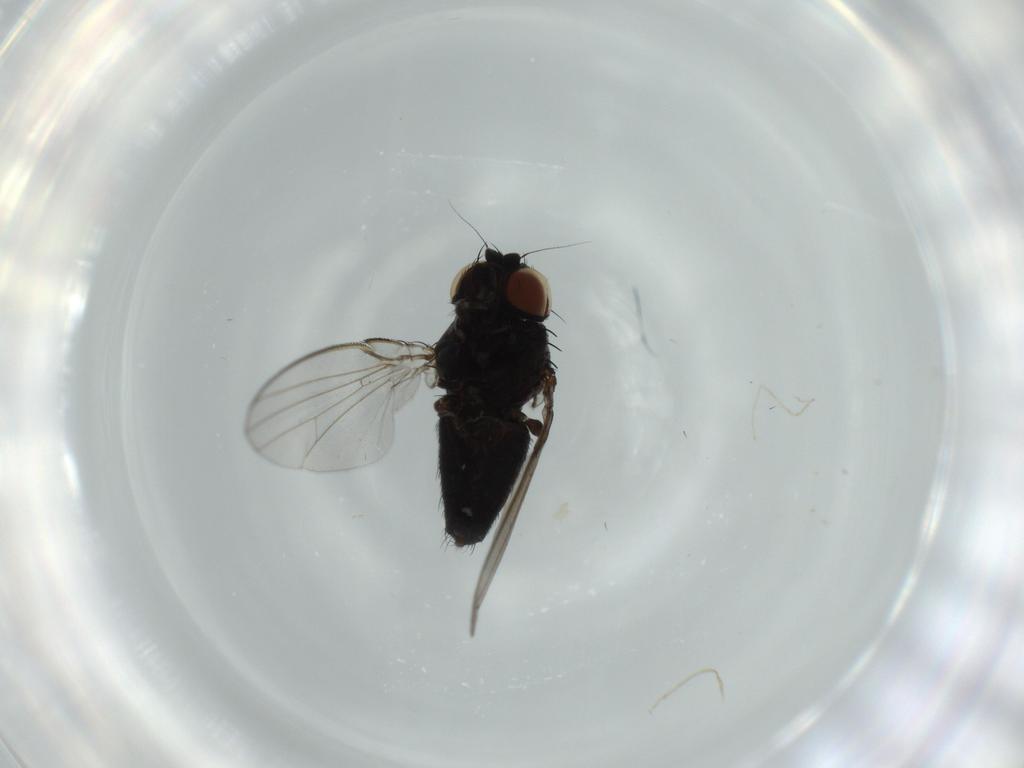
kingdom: Animalia
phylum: Arthropoda
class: Insecta
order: Diptera
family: Milichiidae
